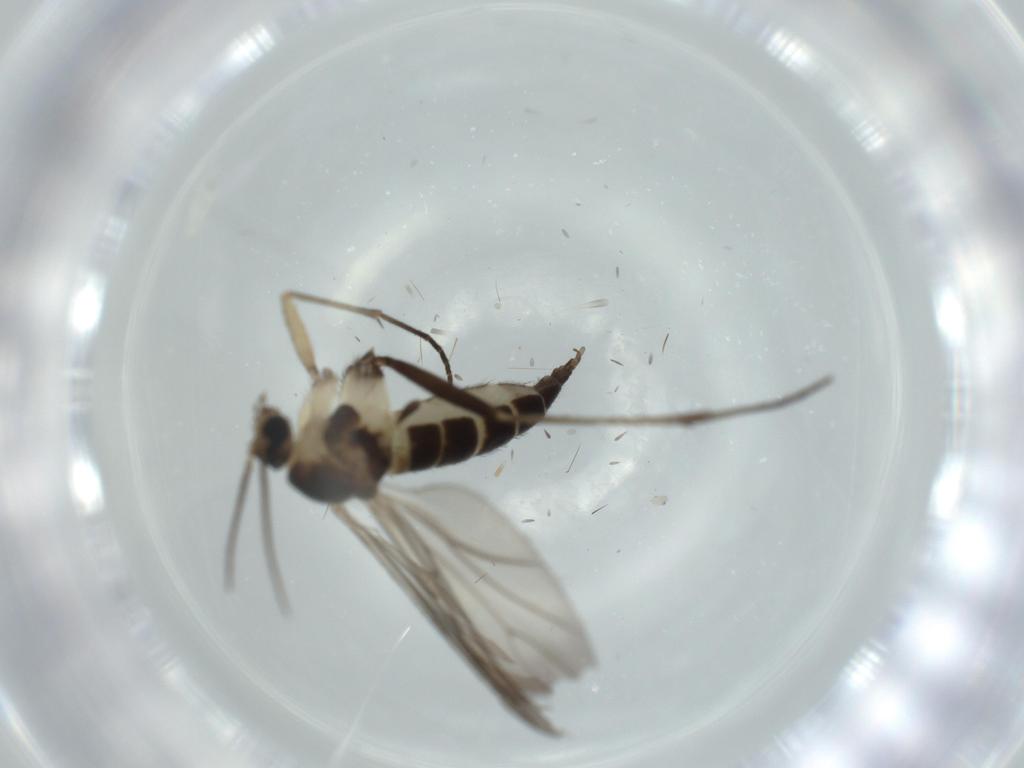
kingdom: Animalia
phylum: Arthropoda
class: Insecta
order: Diptera
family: Sciaridae
